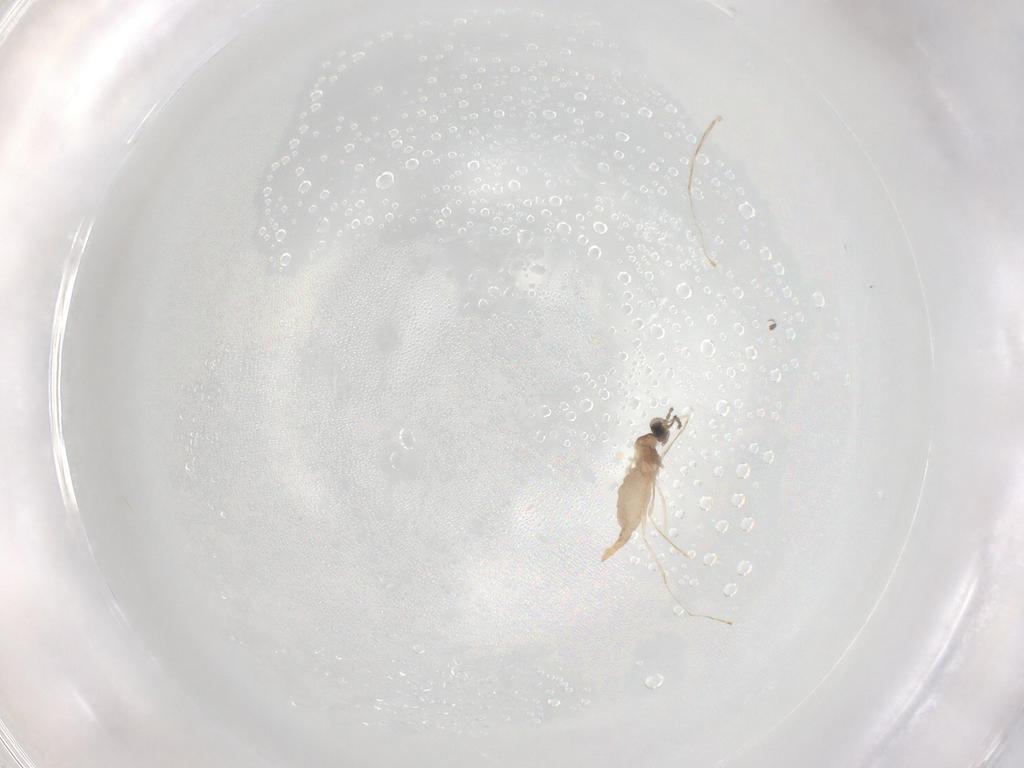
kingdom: Animalia
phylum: Arthropoda
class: Insecta
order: Diptera
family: Cecidomyiidae
